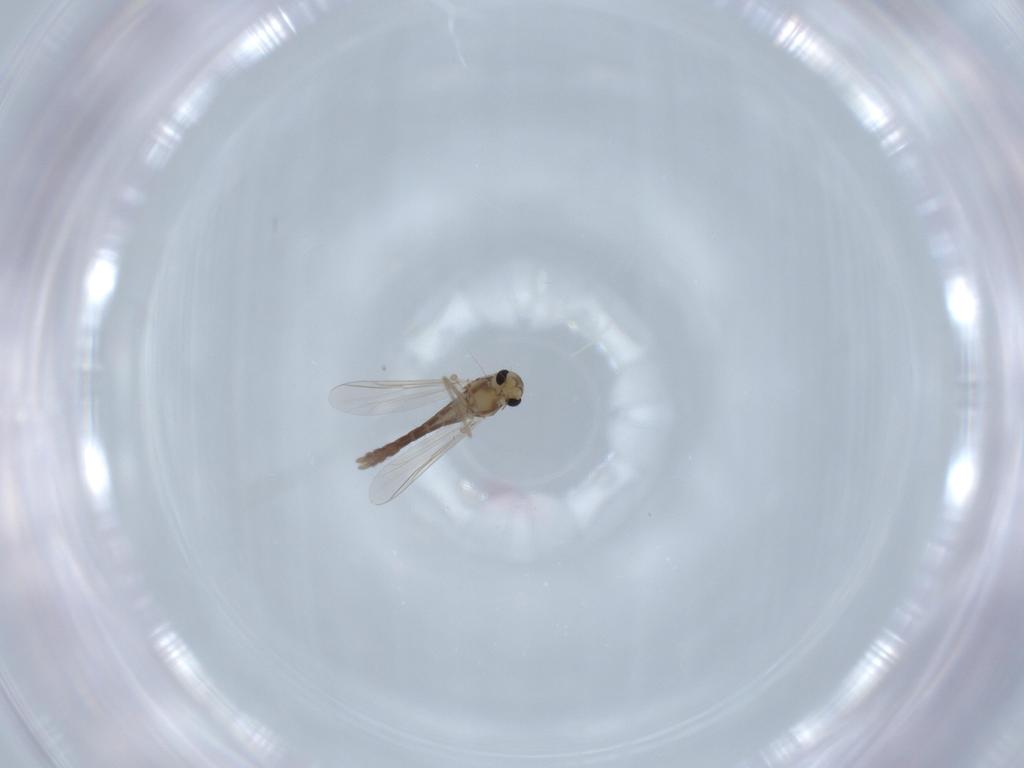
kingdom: Animalia
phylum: Arthropoda
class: Insecta
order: Diptera
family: Chironomidae
